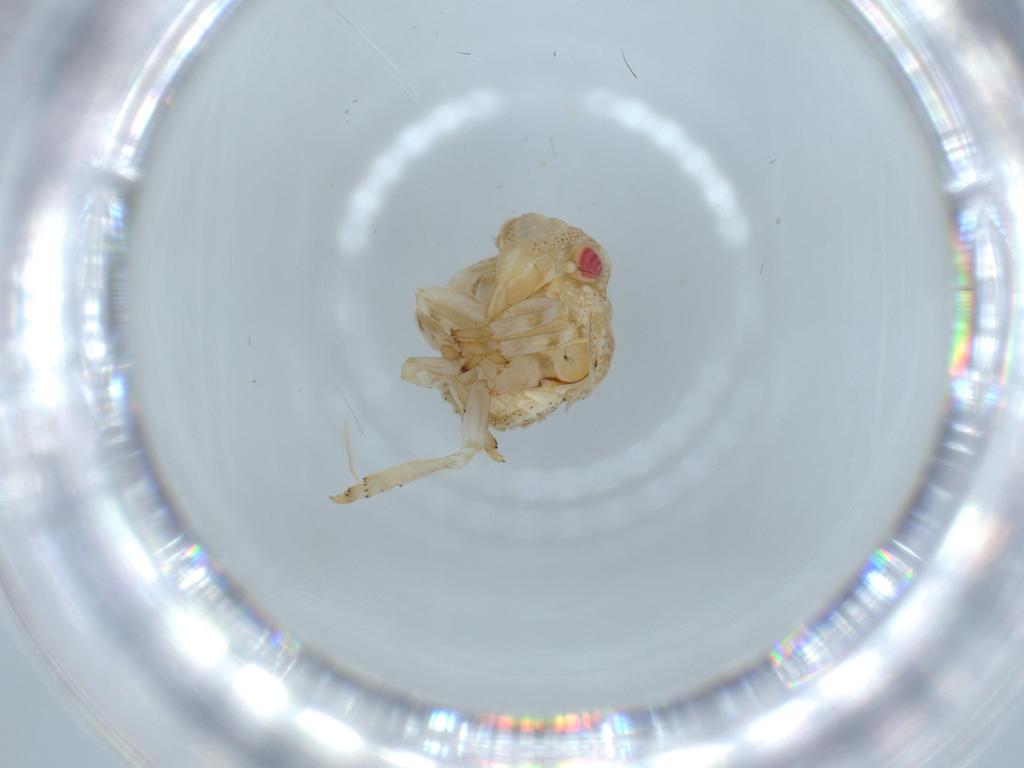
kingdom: Animalia
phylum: Arthropoda
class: Insecta
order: Hemiptera
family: Acanaloniidae
